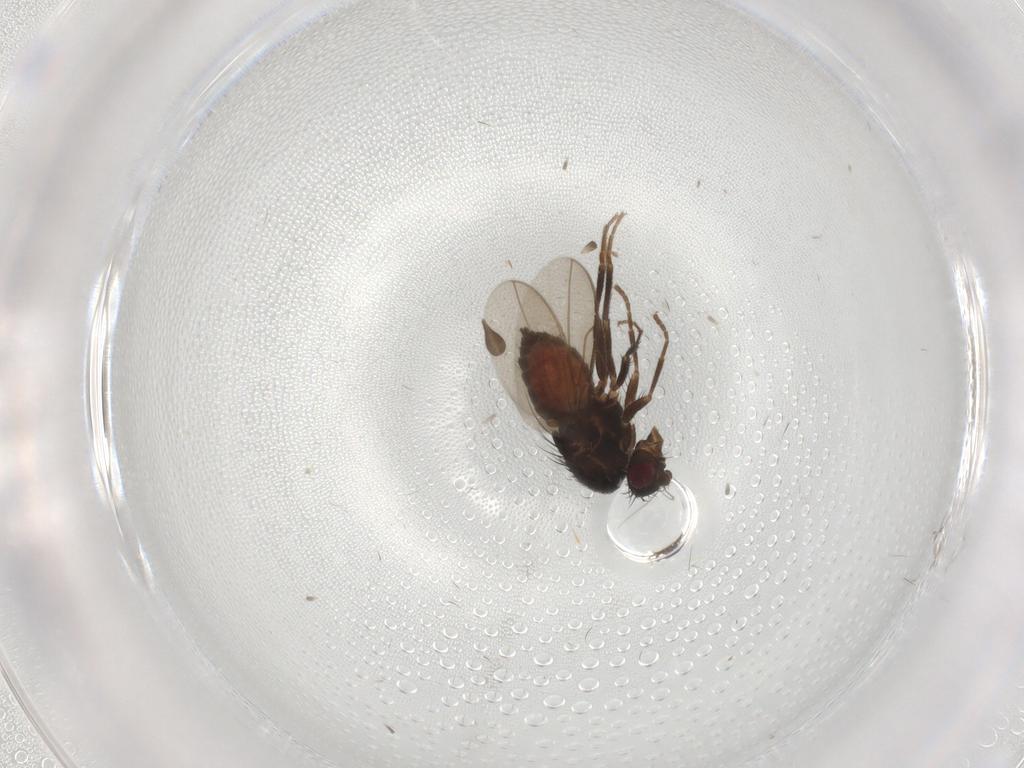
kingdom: Animalia
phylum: Arthropoda
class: Insecta
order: Diptera
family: Sphaeroceridae
